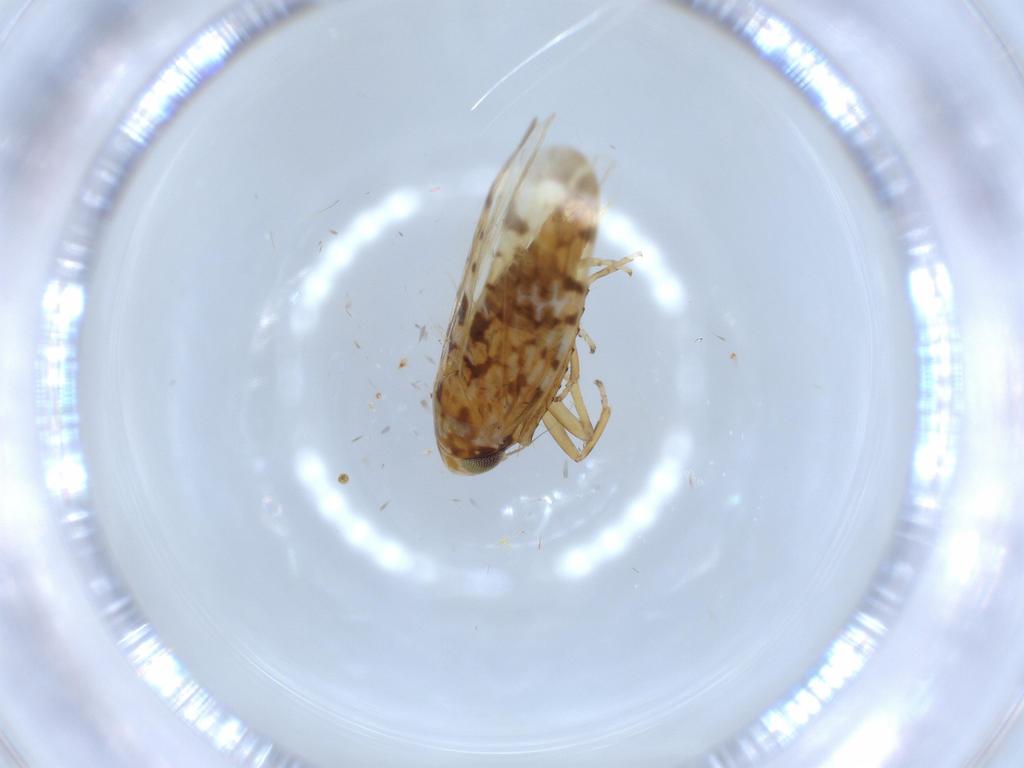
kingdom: Animalia
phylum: Arthropoda
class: Insecta
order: Hemiptera
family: Cicadellidae
